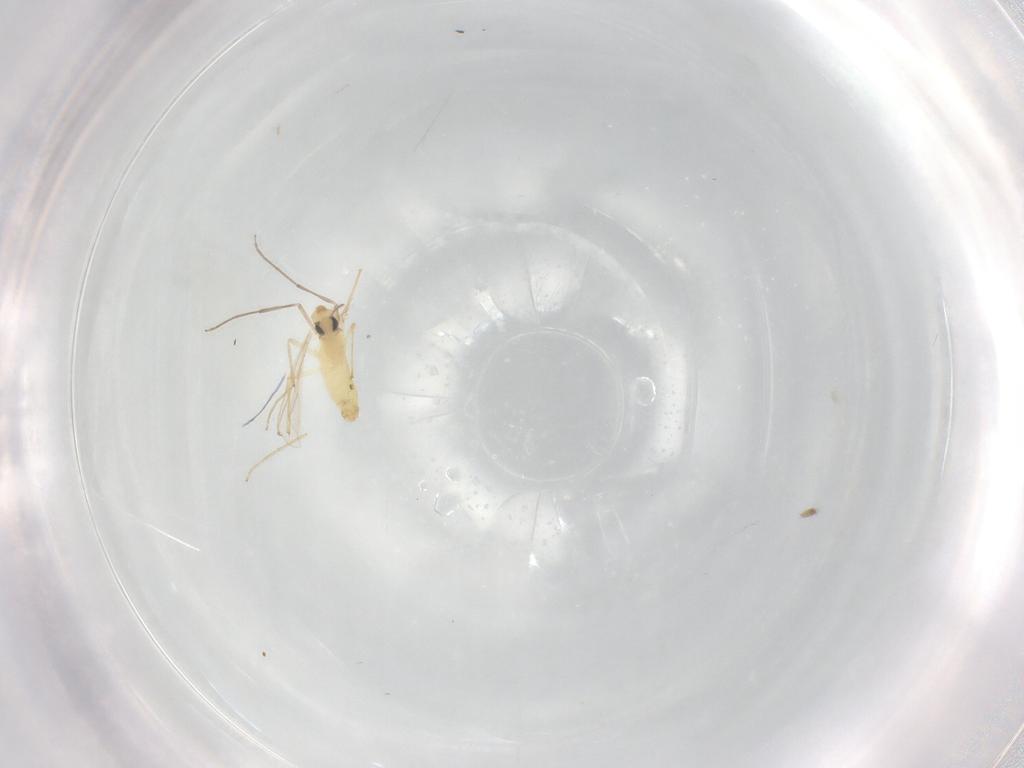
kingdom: Animalia
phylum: Arthropoda
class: Insecta
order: Diptera
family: Chironomidae
